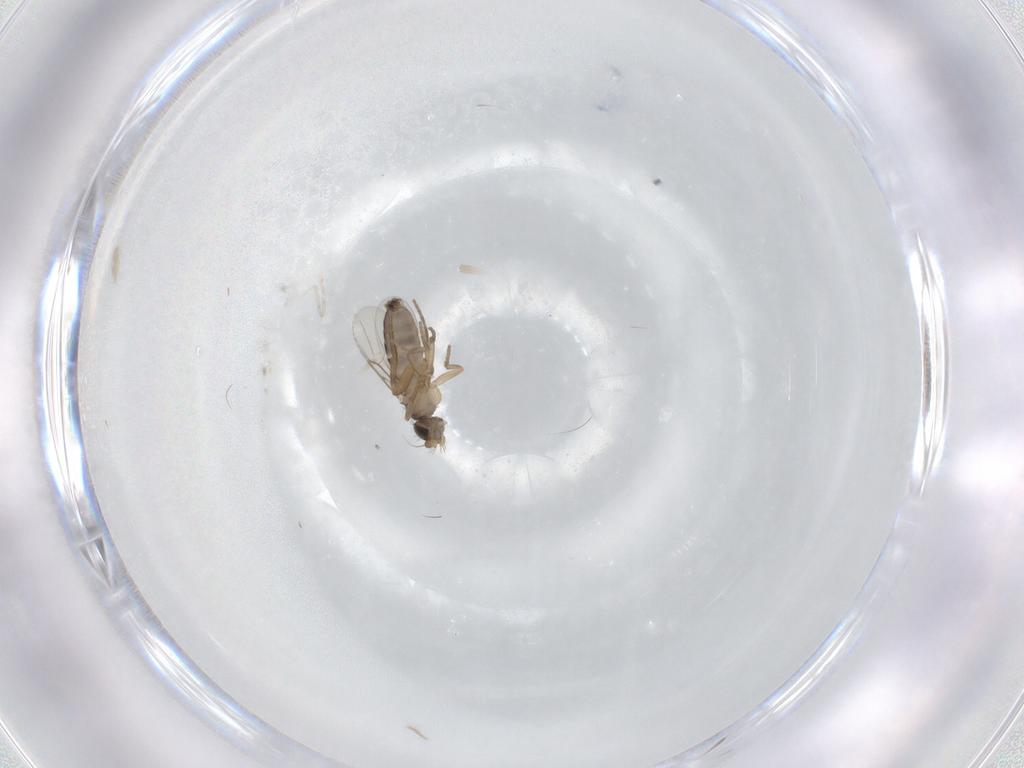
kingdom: Animalia
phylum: Arthropoda
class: Insecta
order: Diptera
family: Phoridae
